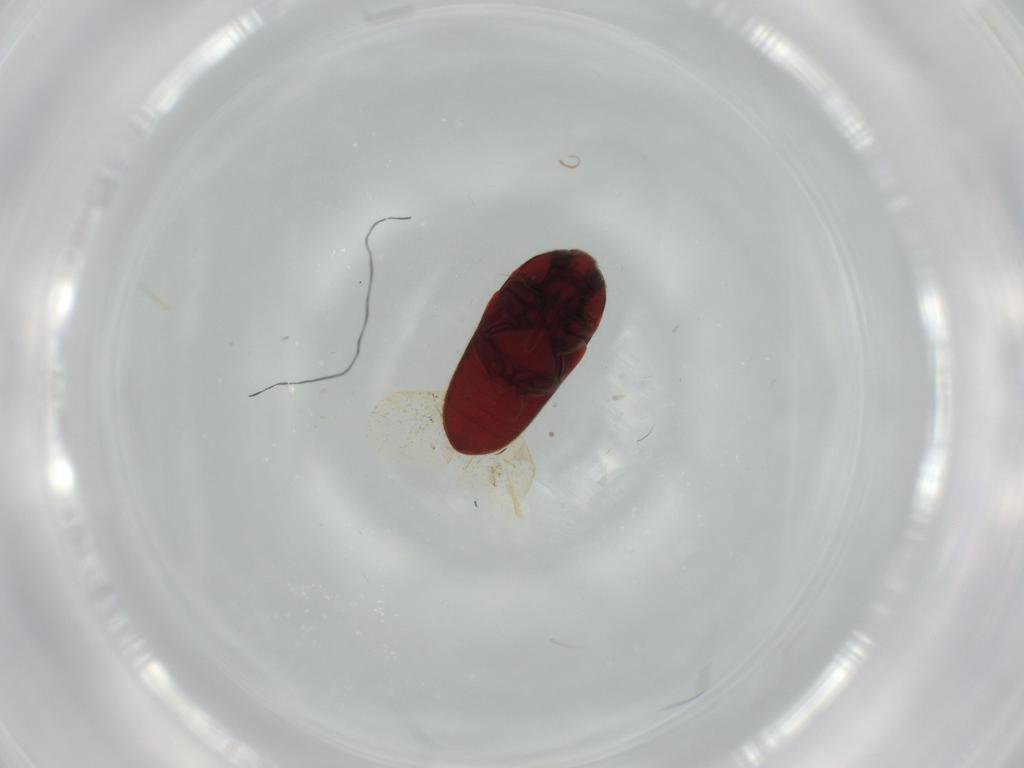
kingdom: Animalia
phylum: Arthropoda
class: Insecta
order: Coleoptera
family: Throscidae
